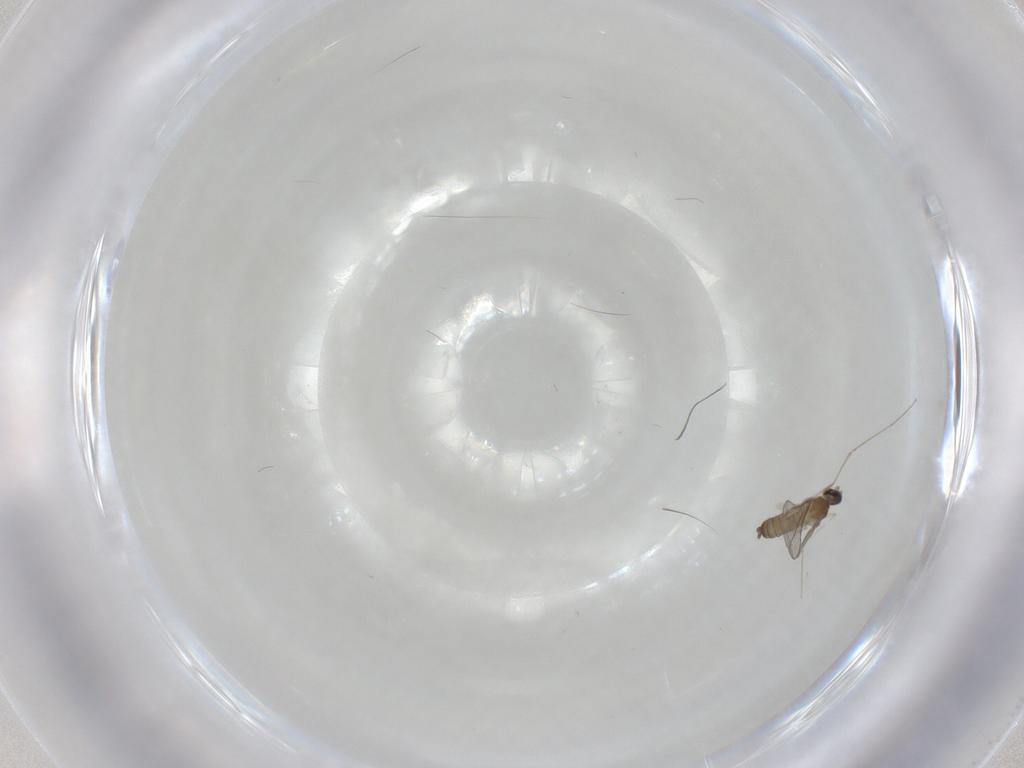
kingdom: Animalia
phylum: Arthropoda
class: Insecta
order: Diptera
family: Cecidomyiidae
